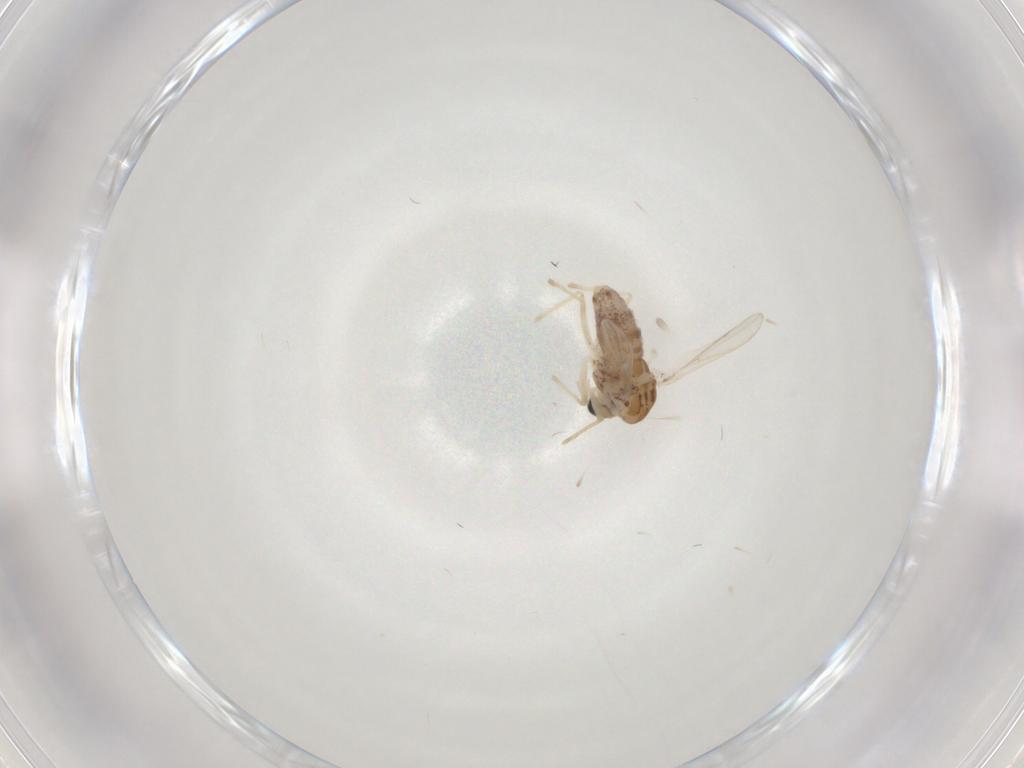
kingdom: Animalia
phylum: Arthropoda
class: Insecta
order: Diptera
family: Chironomidae
